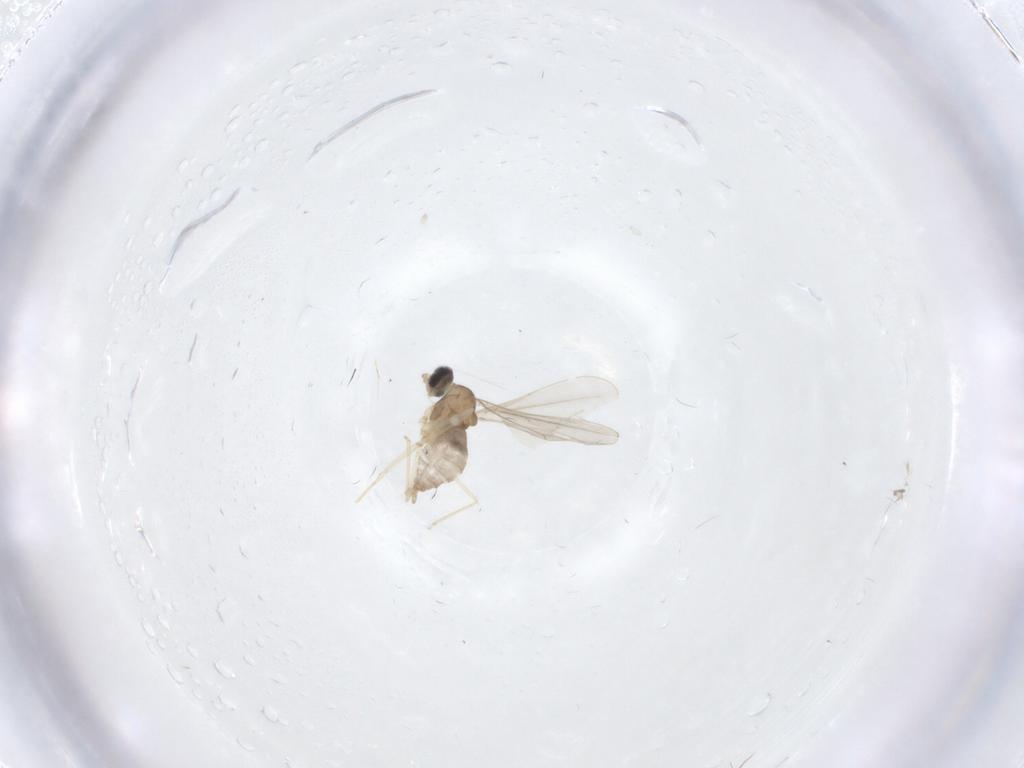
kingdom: Animalia
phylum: Arthropoda
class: Insecta
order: Diptera
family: Cecidomyiidae
